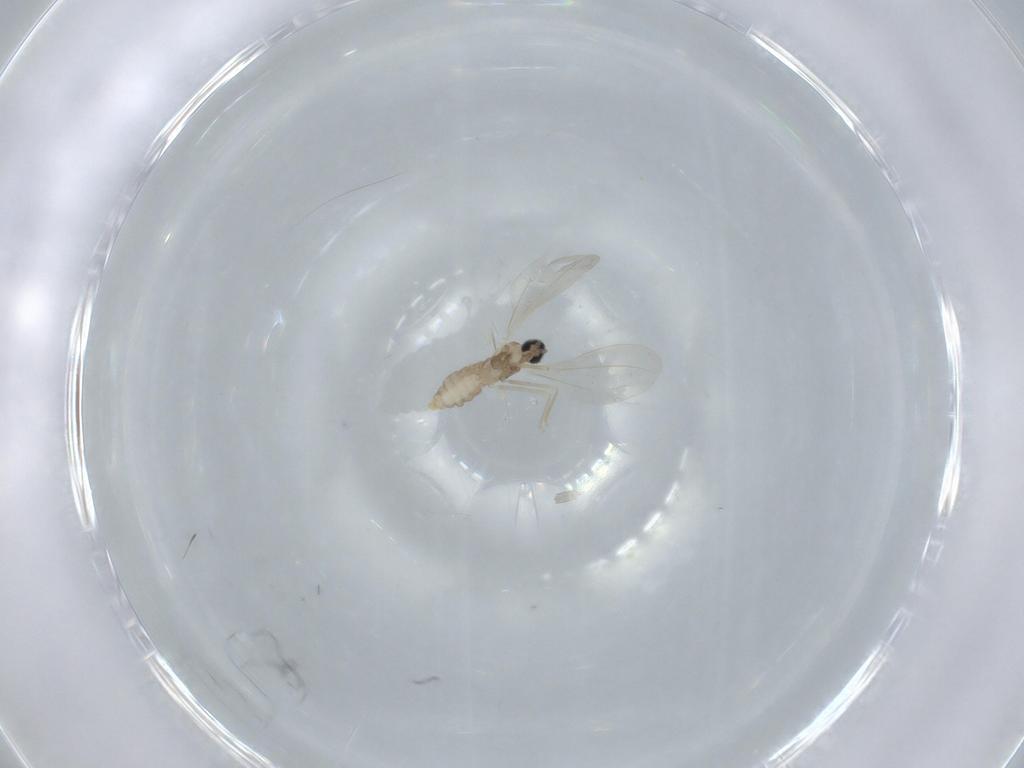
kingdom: Animalia
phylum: Arthropoda
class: Insecta
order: Diptera
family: Cecidomyiidae
